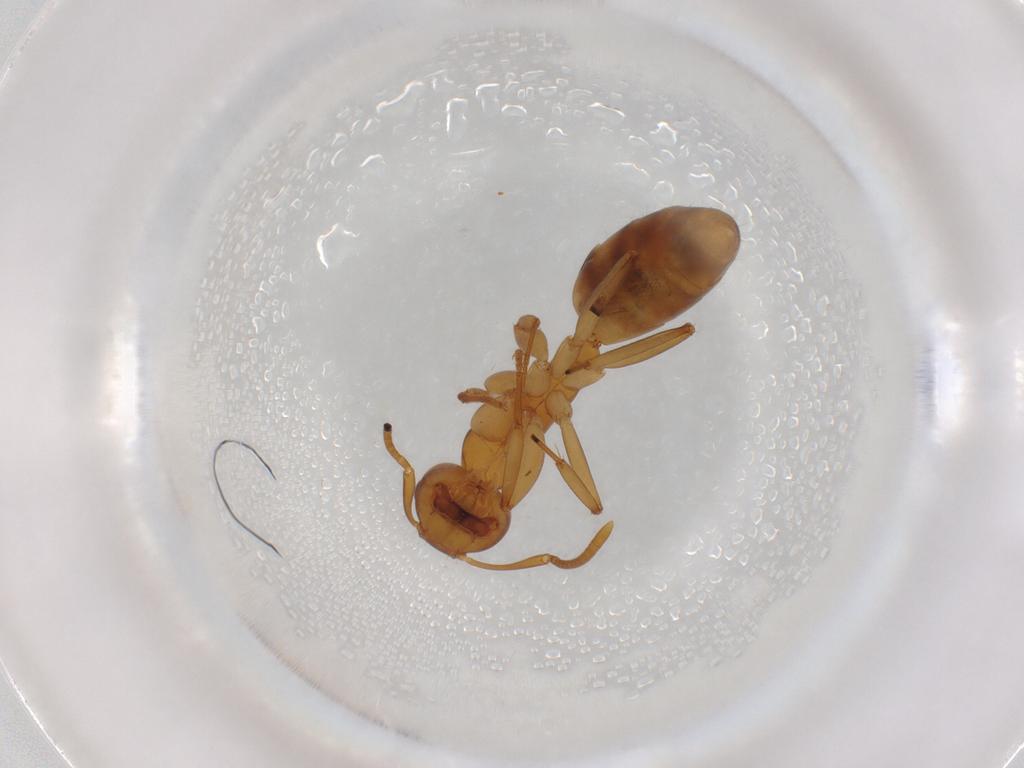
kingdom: Animalia
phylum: Arthropoda
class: Insecta
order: Hymenoptera
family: Formicidae
